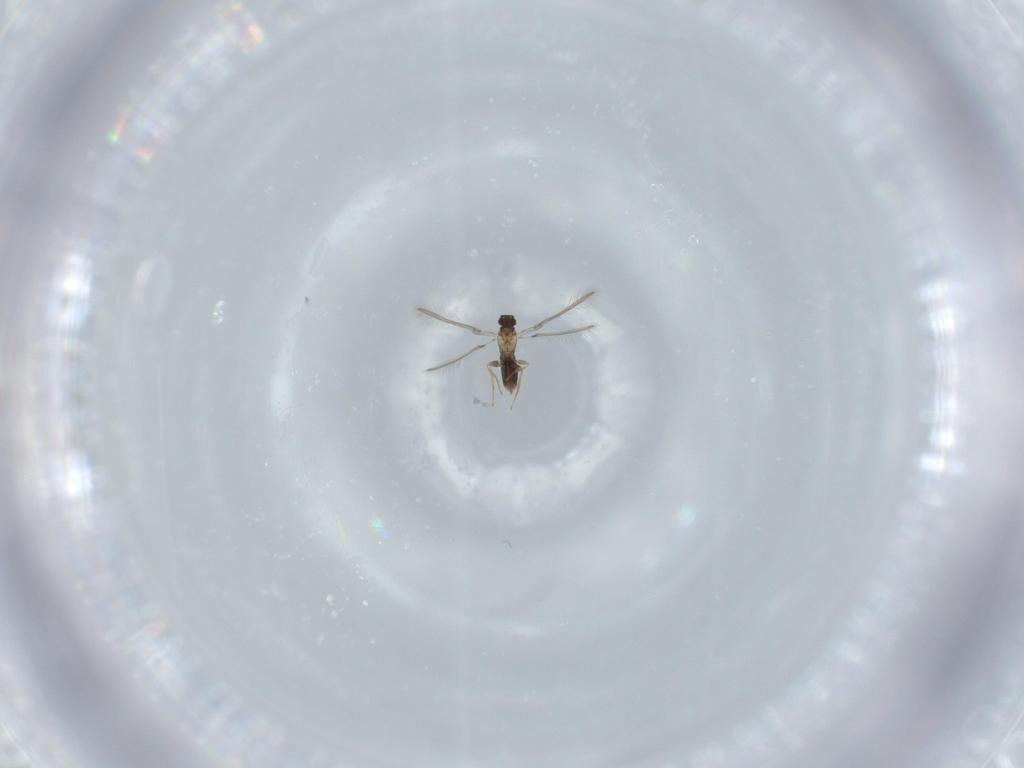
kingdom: Animalia
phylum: Arthropoda
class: Insecta
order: Hymenoptera
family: Mymaridae
